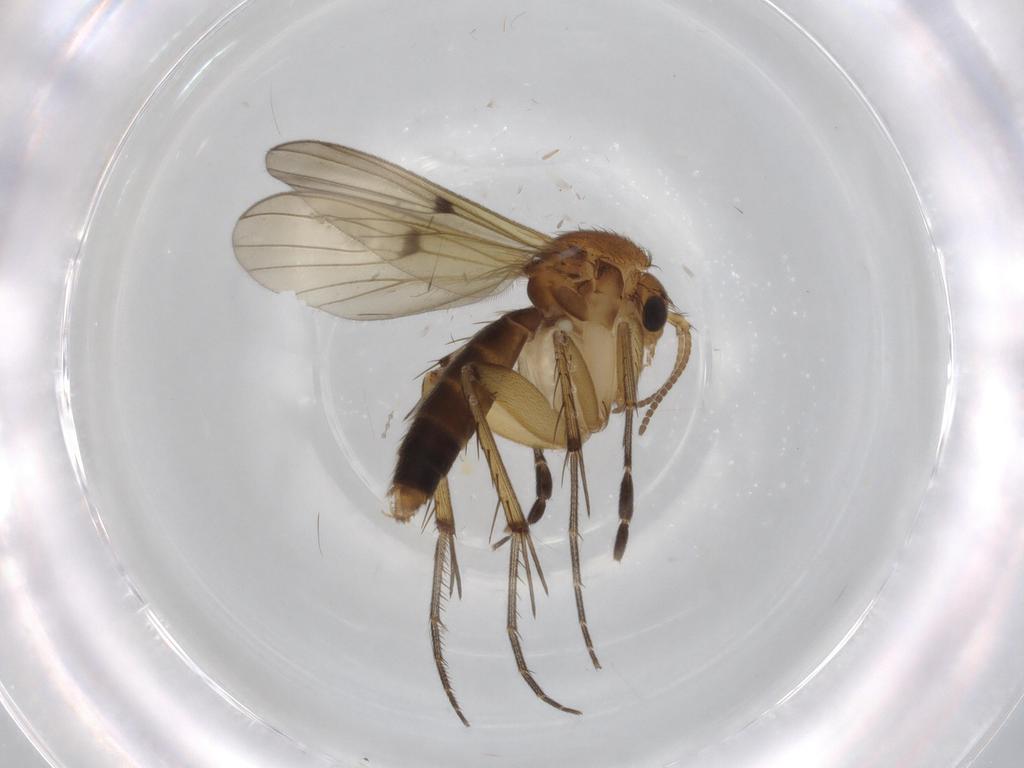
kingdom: Animalia
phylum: Arthropoda
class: Insecta
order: Diptera
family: Mycetophilidae
